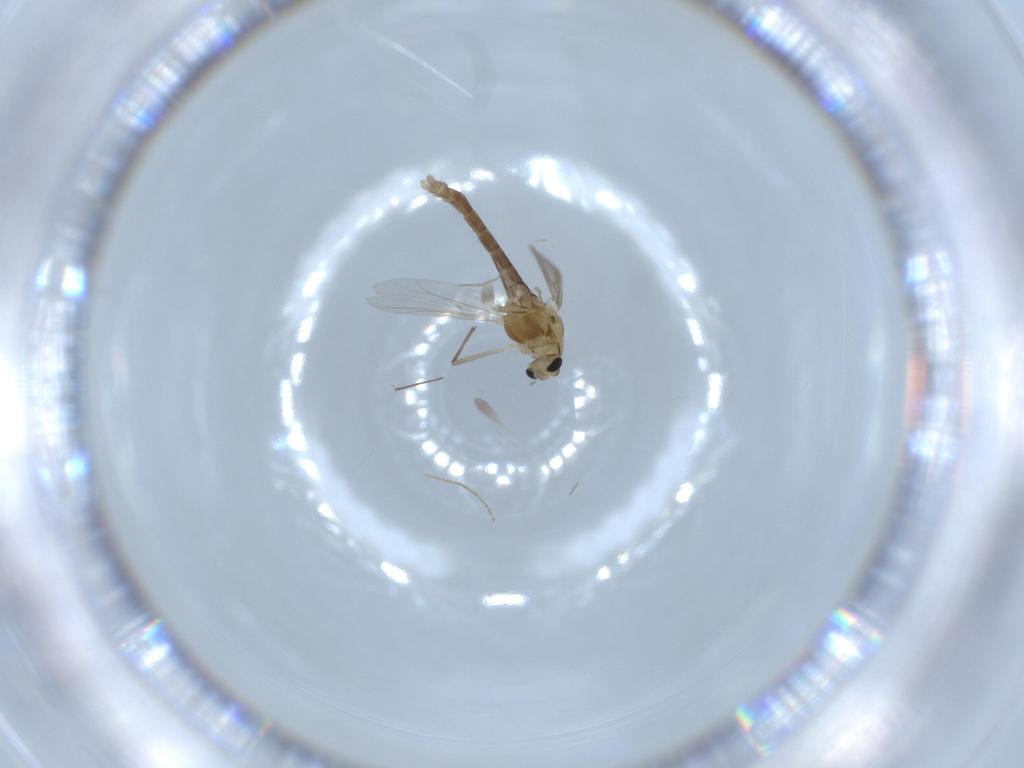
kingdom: Animalia
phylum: Arthropoda
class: Insecta
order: Diptera
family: Chironomidae
